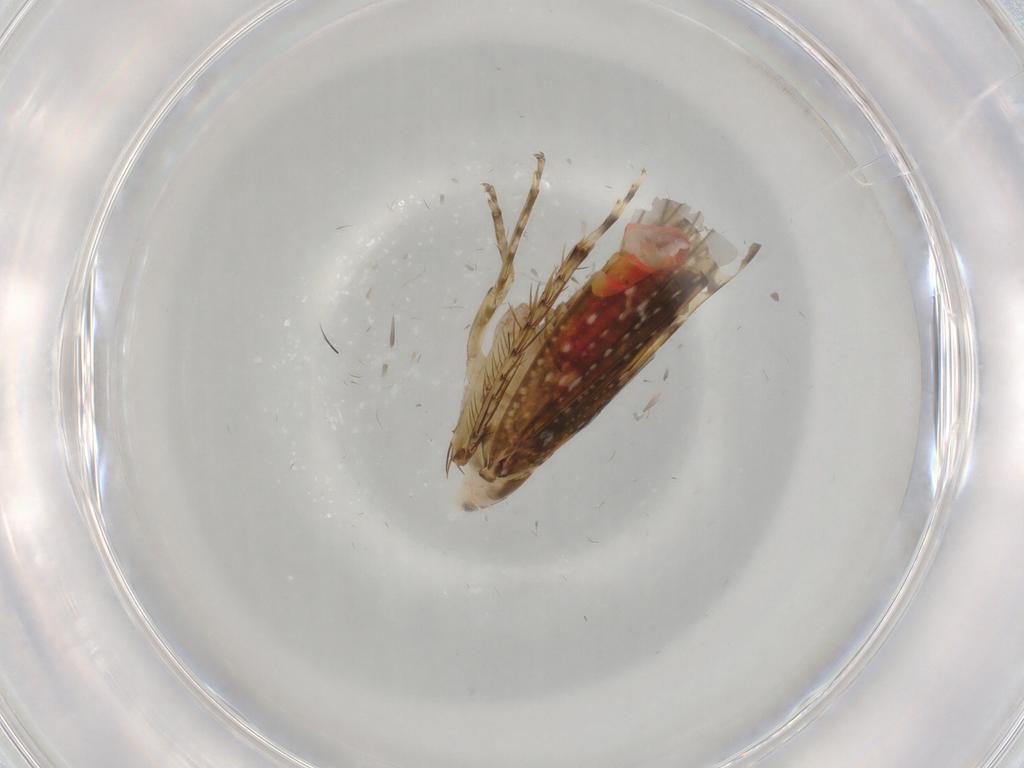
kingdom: Animalia
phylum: Arthropoda
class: Insecta
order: Hemiptera
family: Cicadellidae
